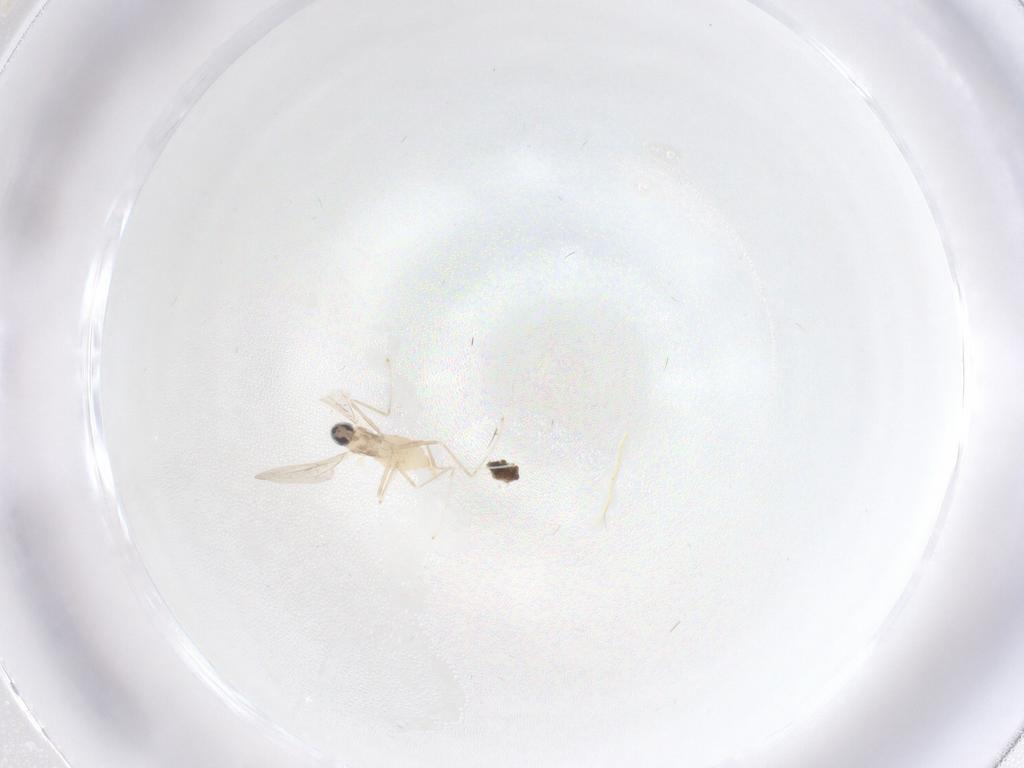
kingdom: Animalia
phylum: Arthropoda
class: Insecta
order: Diptera
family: Cecidomyiidae
